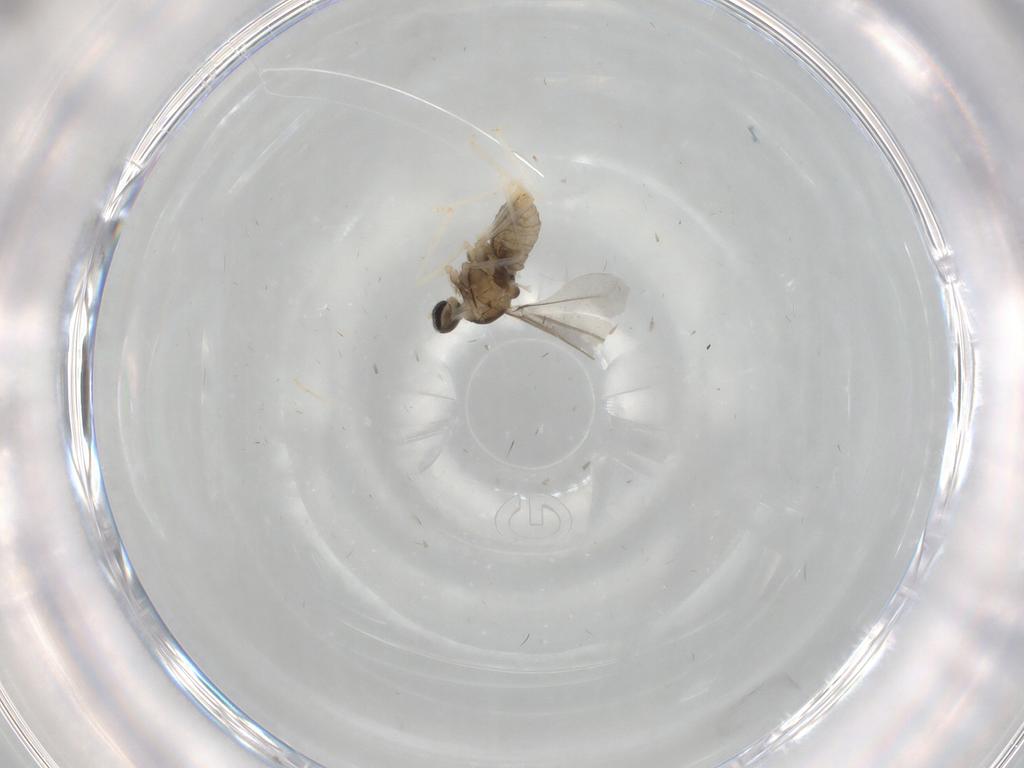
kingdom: Animalia
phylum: Arthropoda
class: Insecta
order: Diptera
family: Cecidomyiidae
